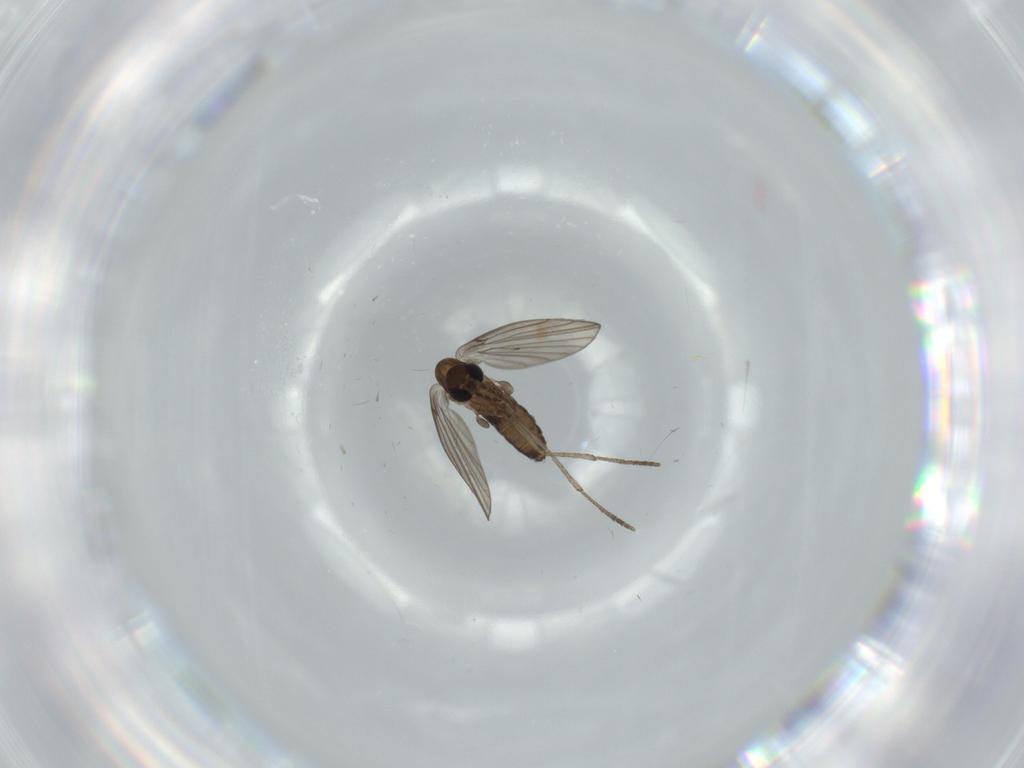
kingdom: Animalia
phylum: Arthropoda
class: Insecta
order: Diptera
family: Psychodidae
